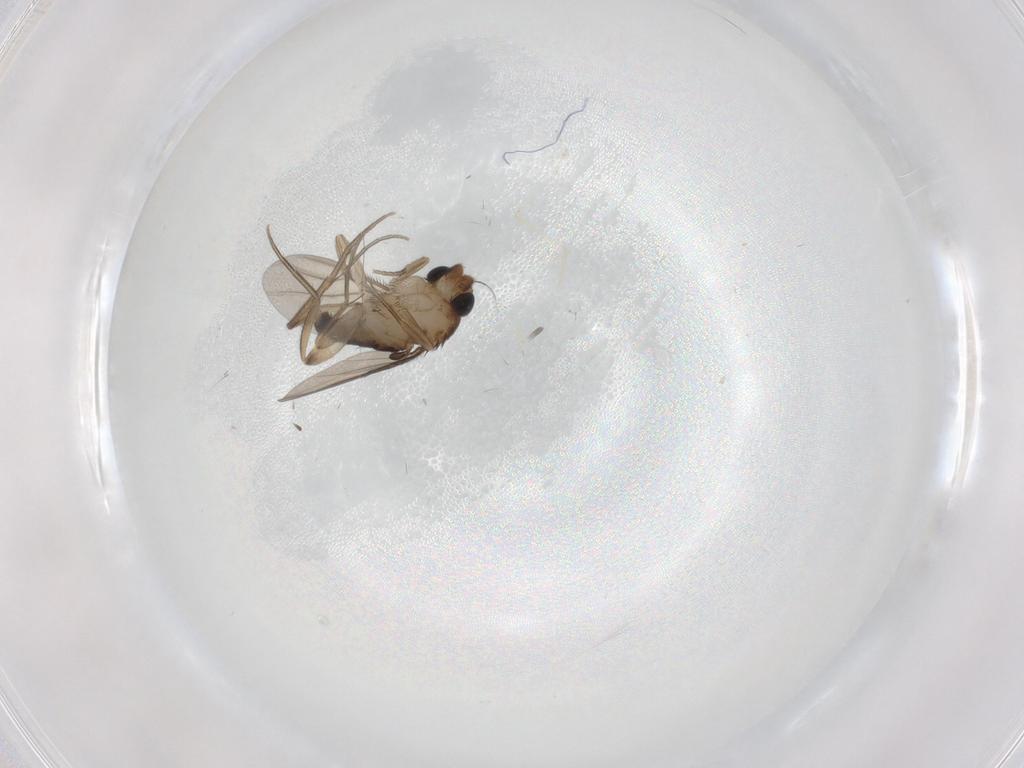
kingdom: Animalia
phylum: Arthropoda
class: Insecta
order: Diptera
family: Phoridae
